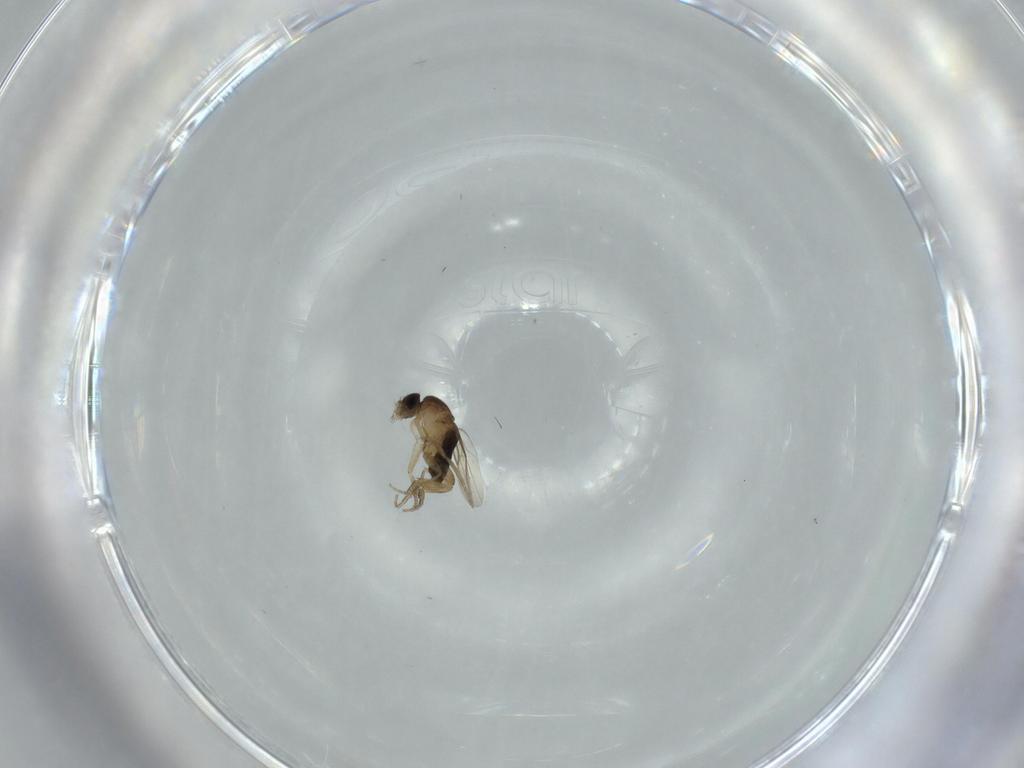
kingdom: Animalia
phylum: Arthropoda
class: Insecta
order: Diptera
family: Phoridae
